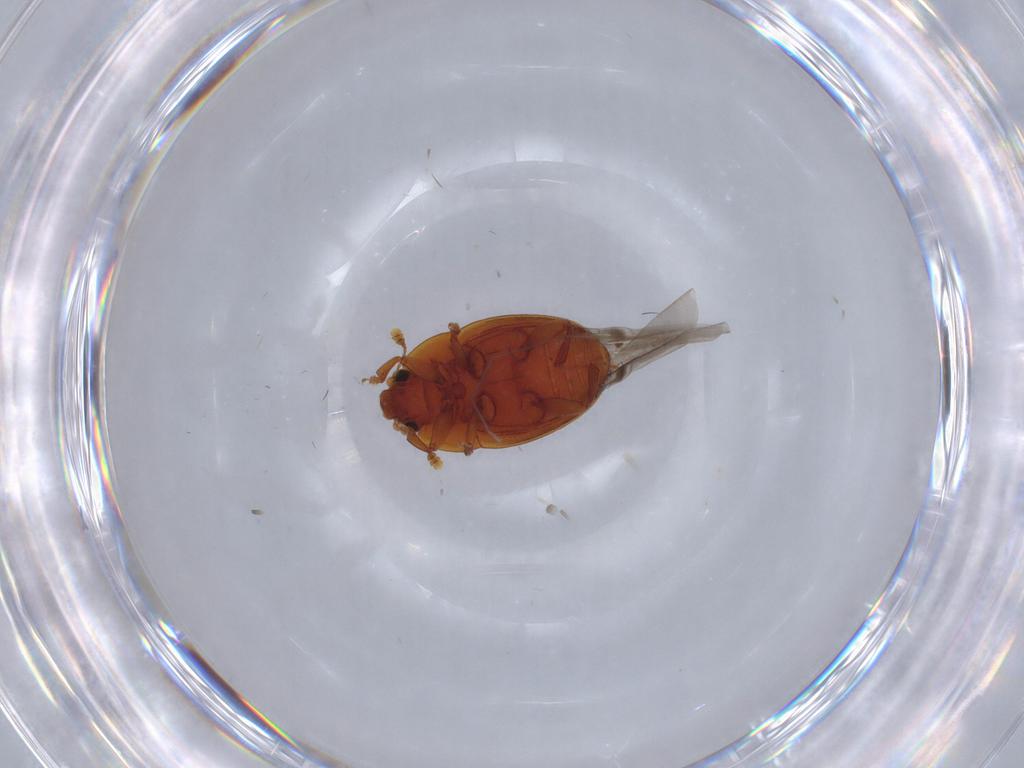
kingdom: Animalia
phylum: Arthropoda
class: Insecta
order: Coleoptera
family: Nitidulidae
